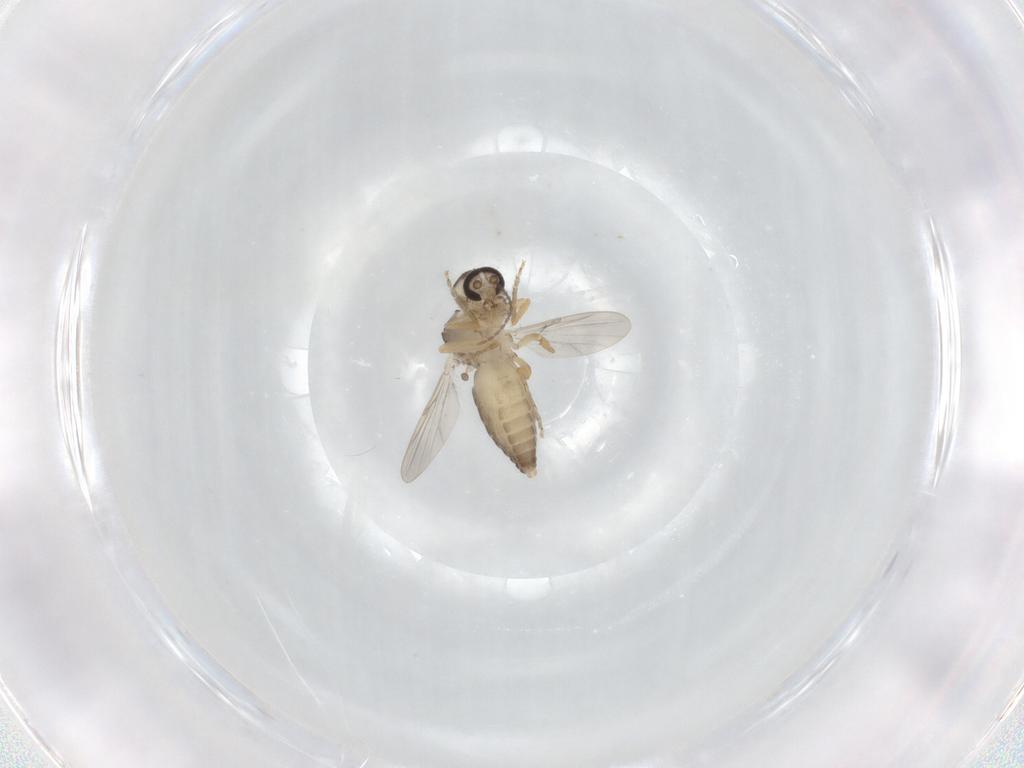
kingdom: Animalia
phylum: Arthropoda
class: Insecta
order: Diptera
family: Ceratopogonidae
